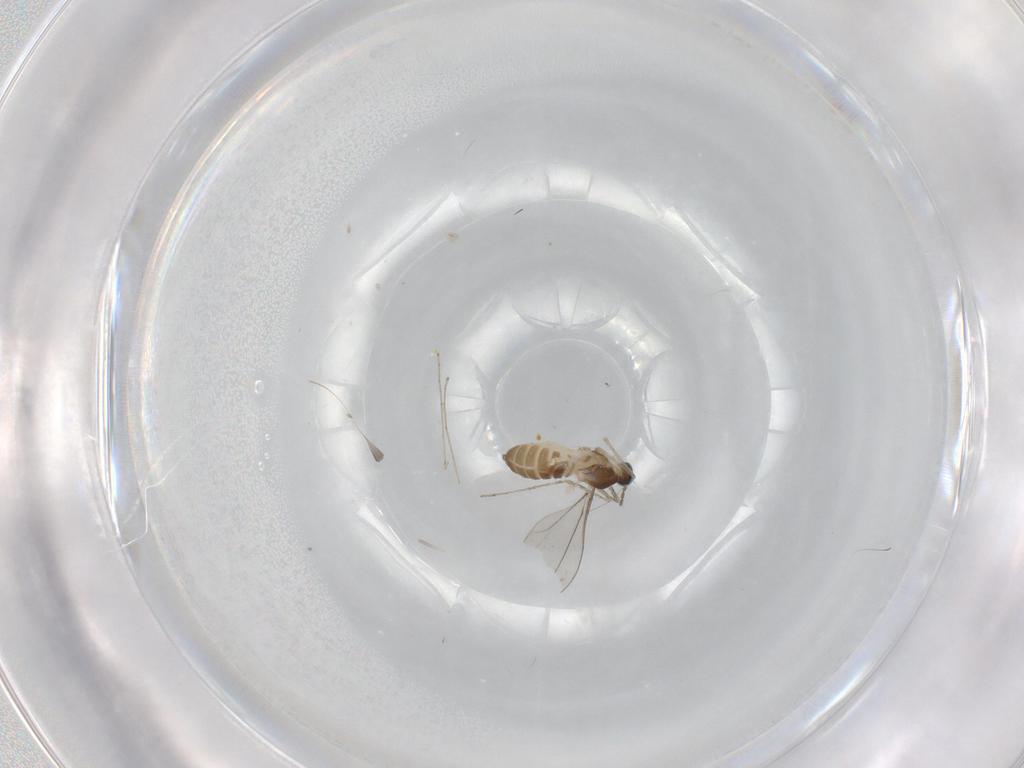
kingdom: Animalia
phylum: Arthropoda
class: Insecta
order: Diptera
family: Cecidomyiidae
